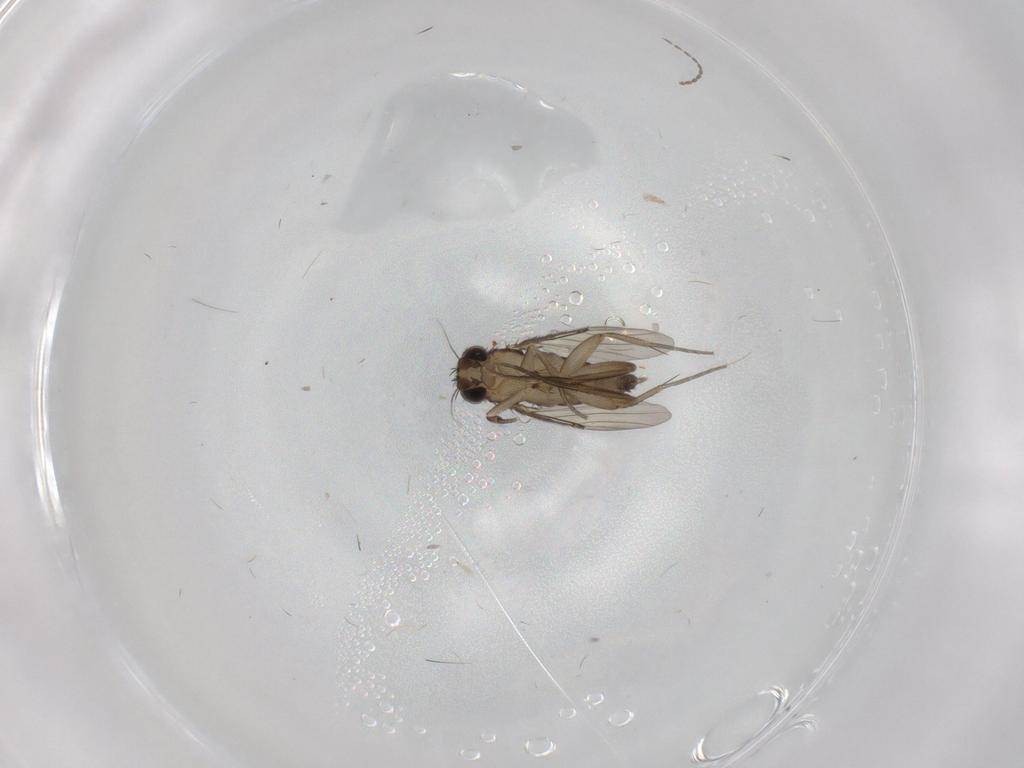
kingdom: Animalia
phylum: Arthropoda
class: Insecta
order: Diptera
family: Phoridae
